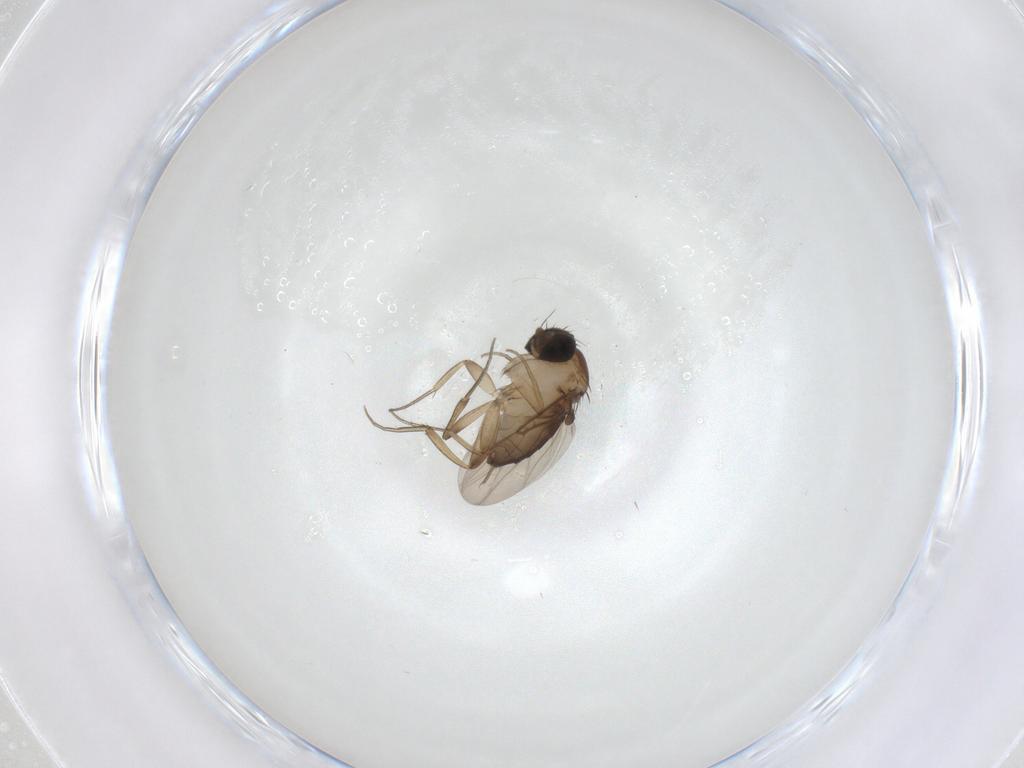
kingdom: Animalia
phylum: Arthropoda
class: Insecta
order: Diptera
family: Phoridae
